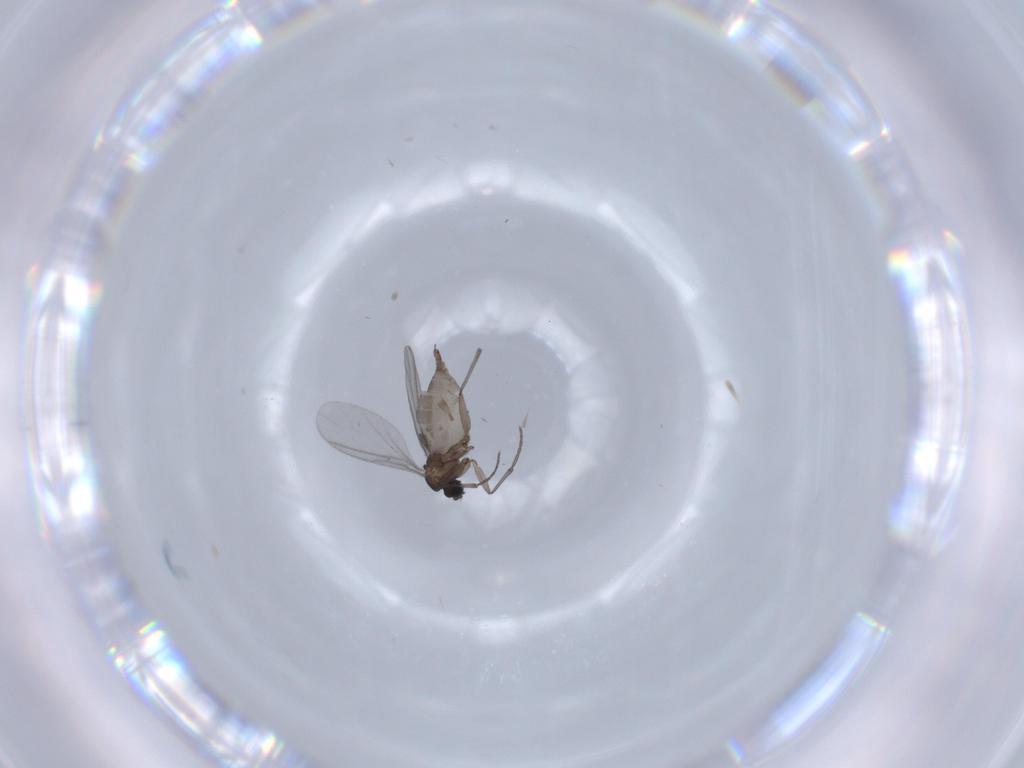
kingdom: Animalia
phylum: Arthropoda
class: Insecta
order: Diptera
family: Sciaridae
